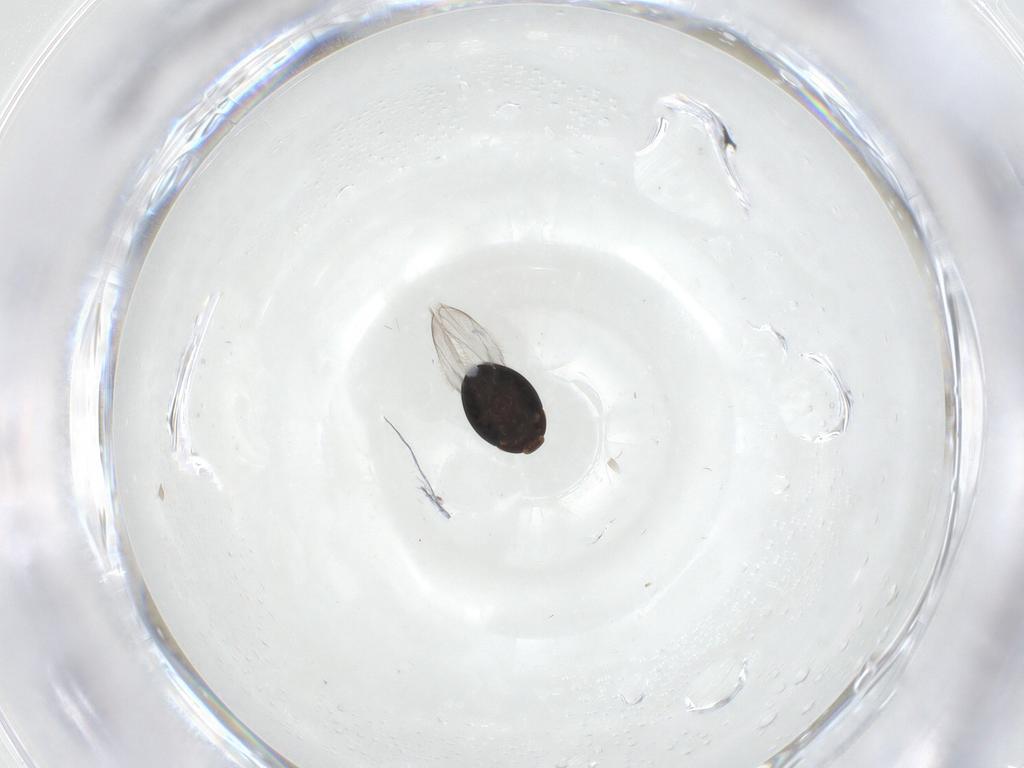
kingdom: Animalia
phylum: Arthropoda
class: Insecta
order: Coleoptera
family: Corylophidae
